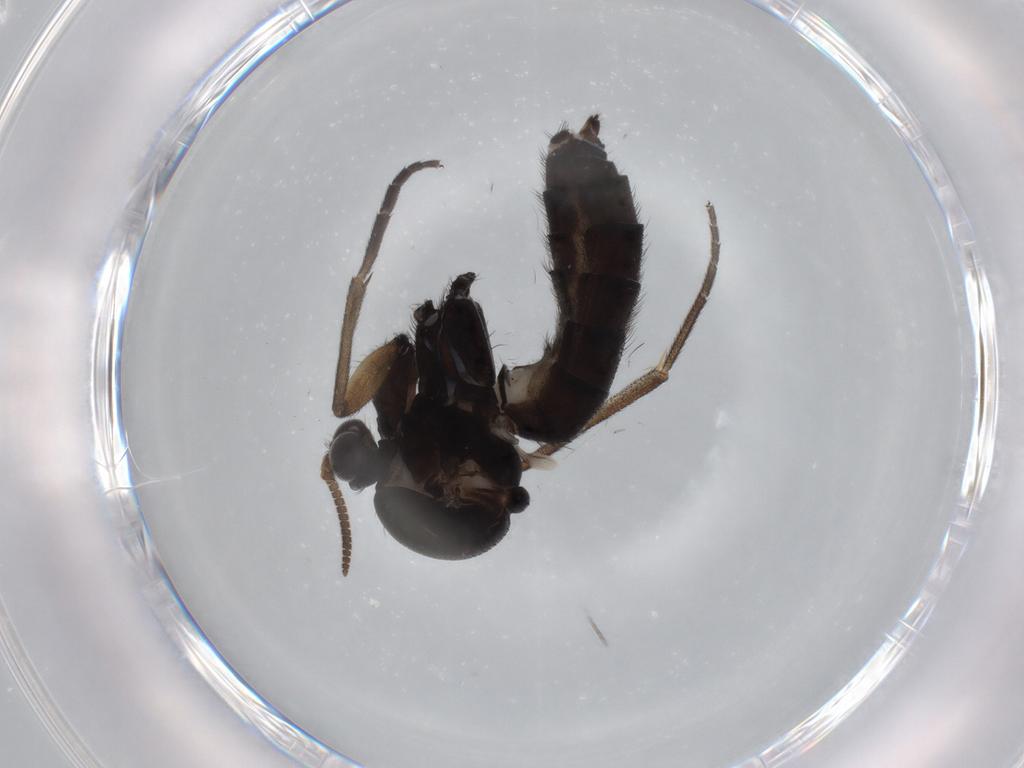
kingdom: Animalia
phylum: Arthropoda
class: Insecta
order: Diptera
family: Mycetophilidae
